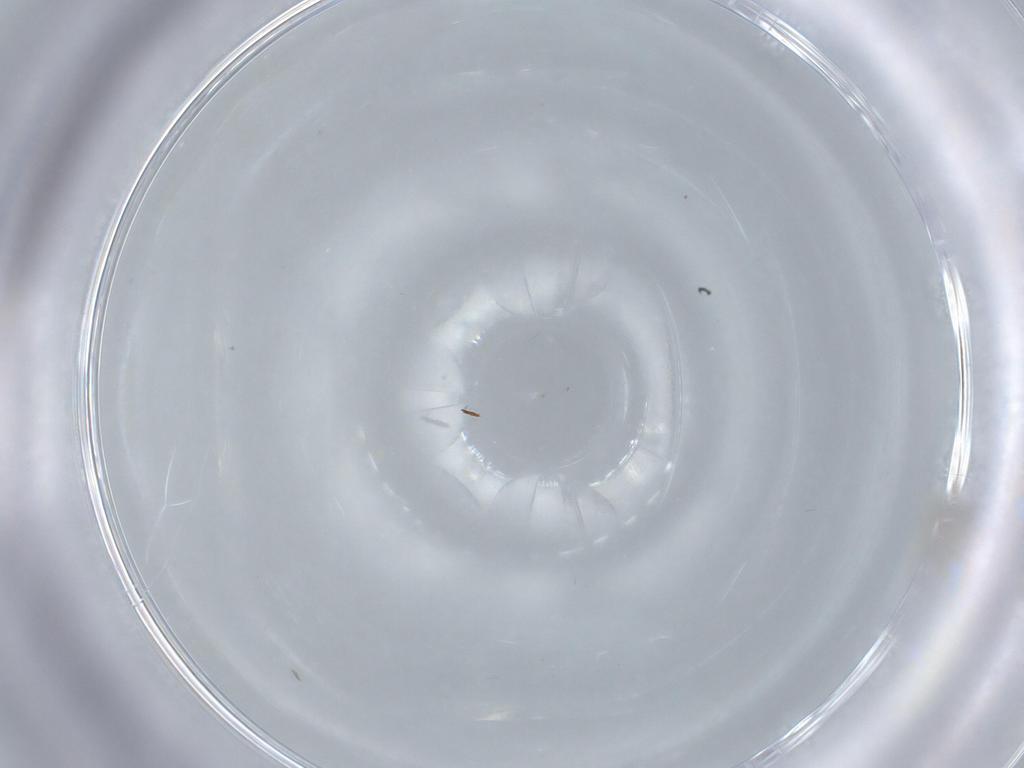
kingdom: Animalia
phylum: Arthropoda
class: Insecta
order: Diptera
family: Cecidomyiidae
